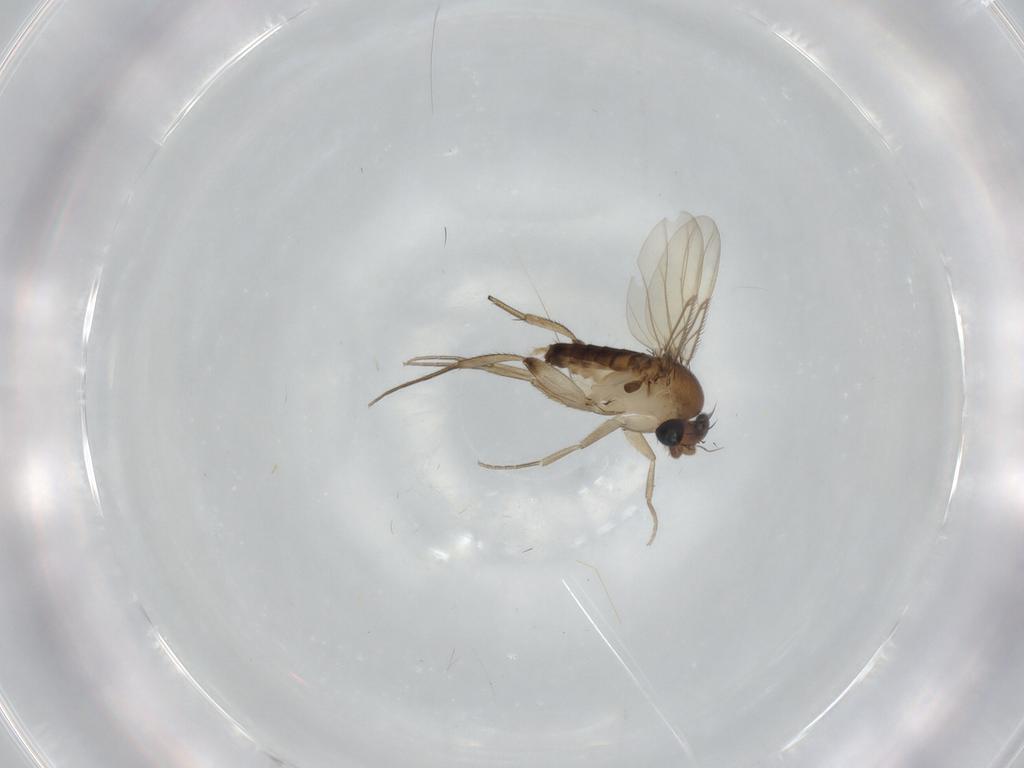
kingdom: Animalia
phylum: Arthropoda
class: Insecta
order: Diptera
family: Phoridae
